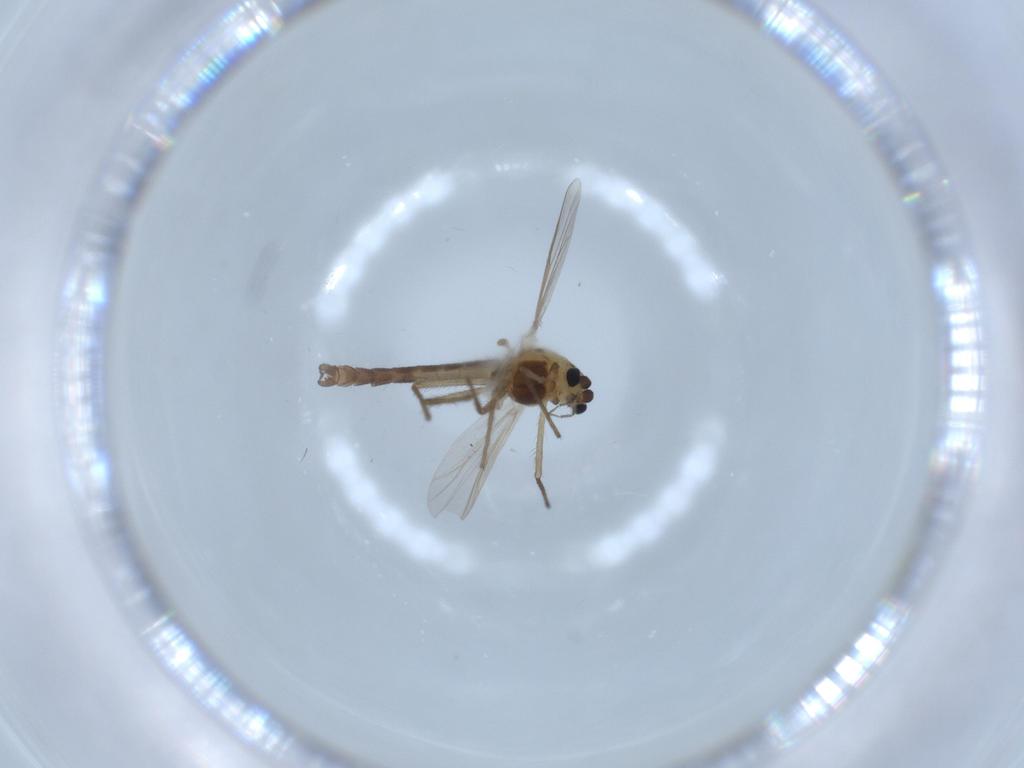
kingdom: Animalia
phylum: Arthropoda
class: Insecta
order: Diptera
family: Chironomidae
